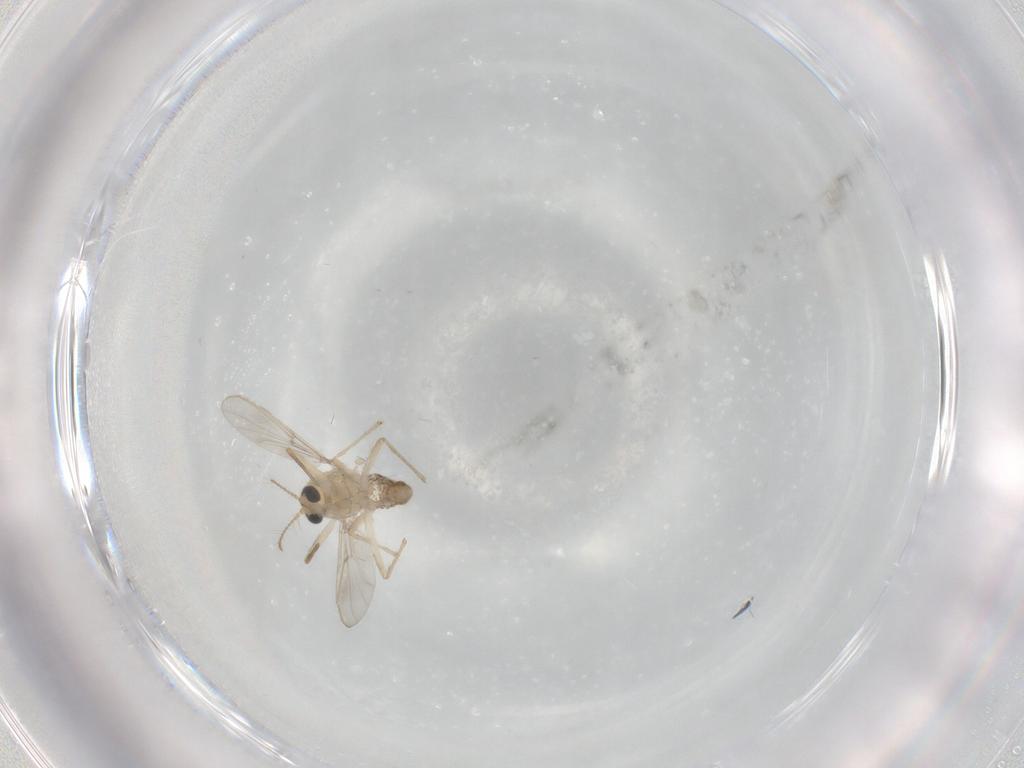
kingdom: Animalia
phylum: Arthropoda
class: Insecta
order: Diptera
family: Chironomidae
